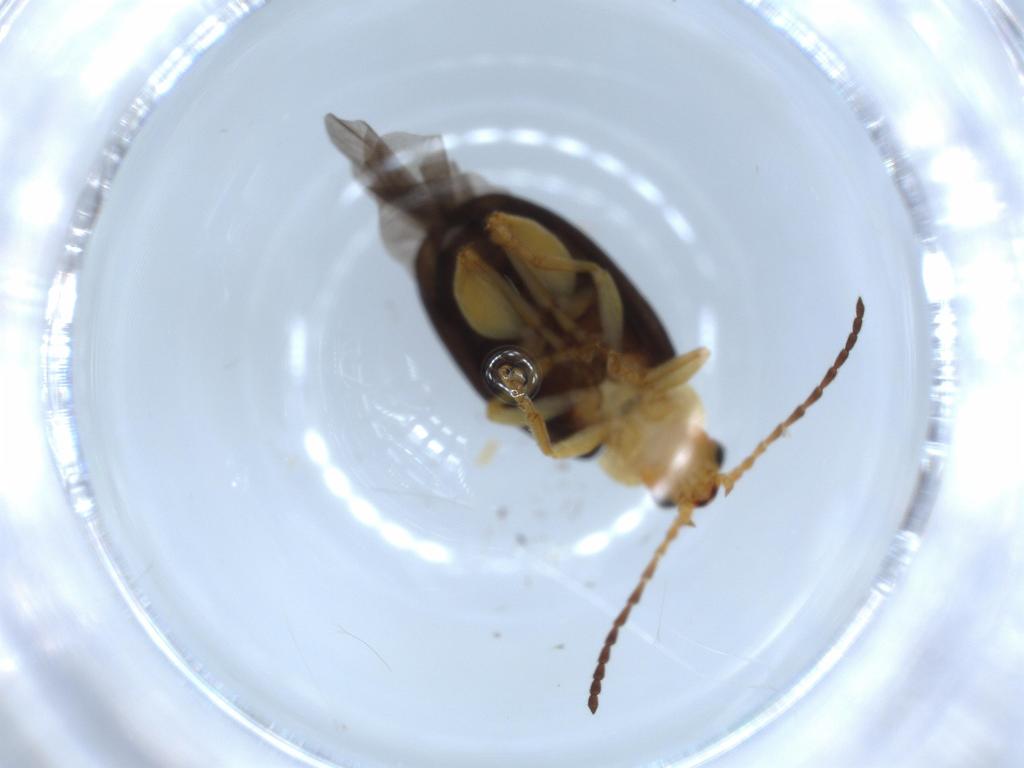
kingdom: Animalia
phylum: Arthropoda
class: Insecta
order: Coleoptera
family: Chrysomelidae
